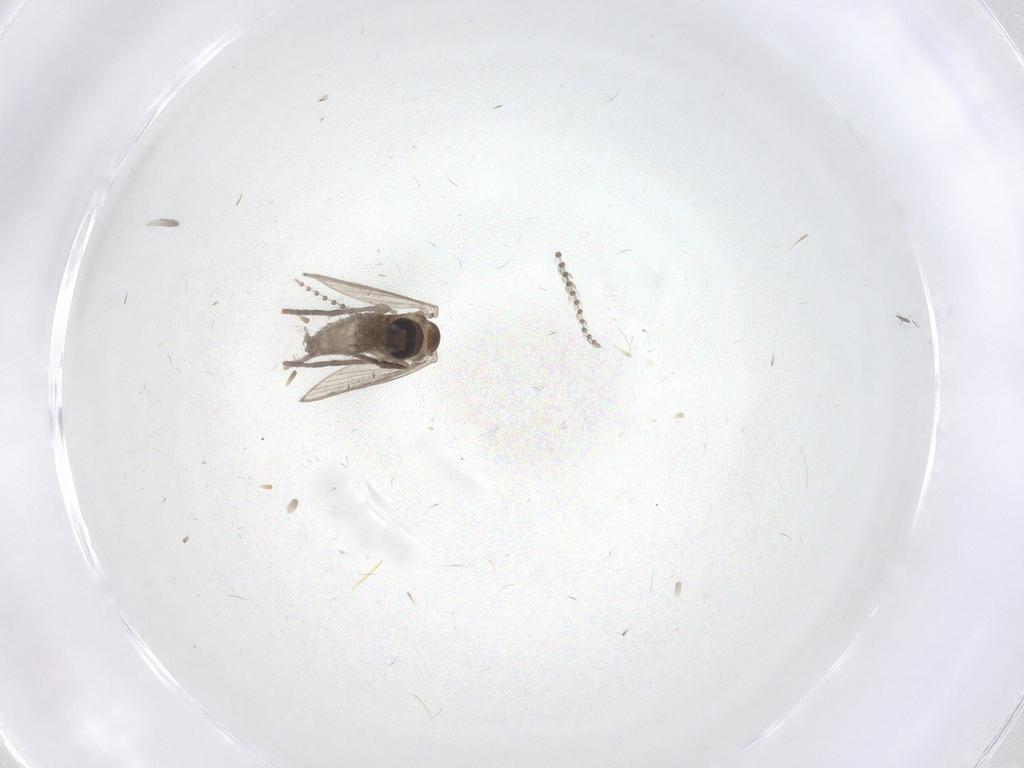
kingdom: Animalia
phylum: Arthropoda
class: Insecta
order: Diptera
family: Psychodidae
